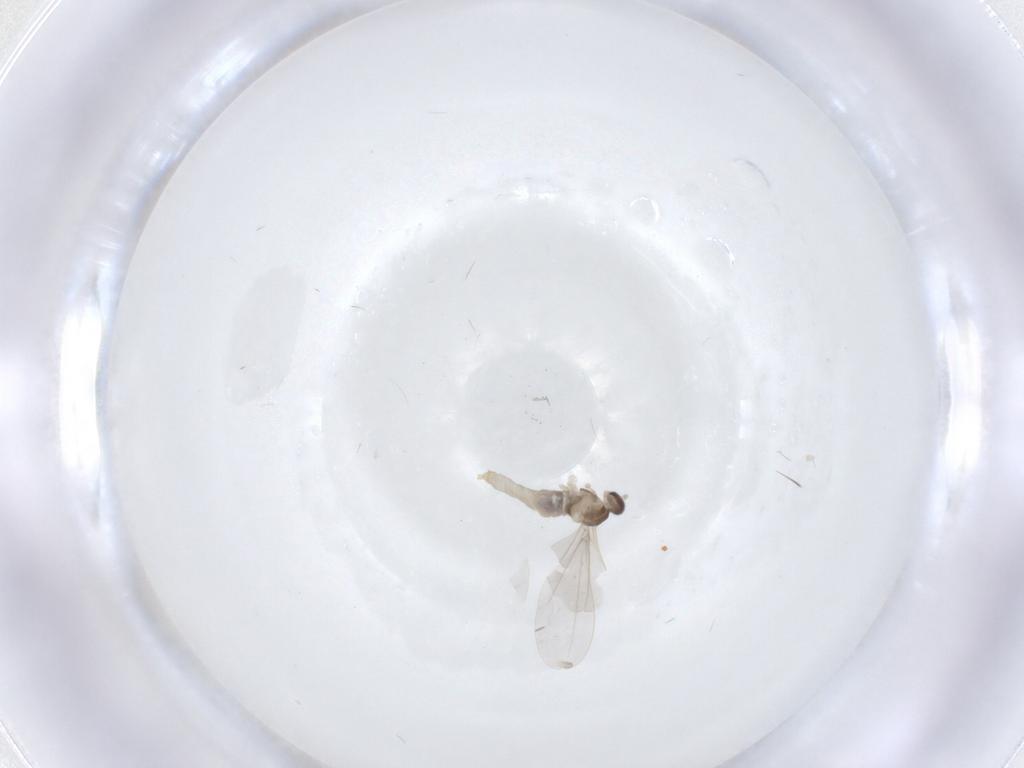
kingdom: Animalia
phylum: Arthropoda
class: Insecta
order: Diptera
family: Cecidomyiidae
